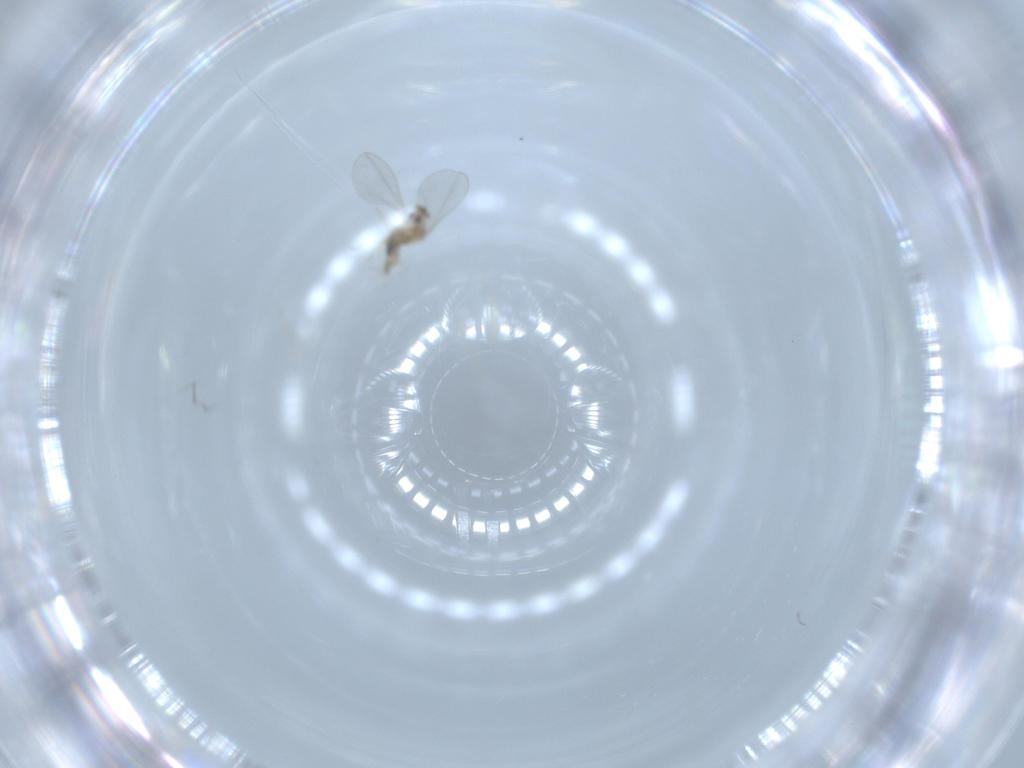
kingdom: Animalia
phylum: Arthropoda
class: Insecta
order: Diptera
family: Cecidomyiidae
